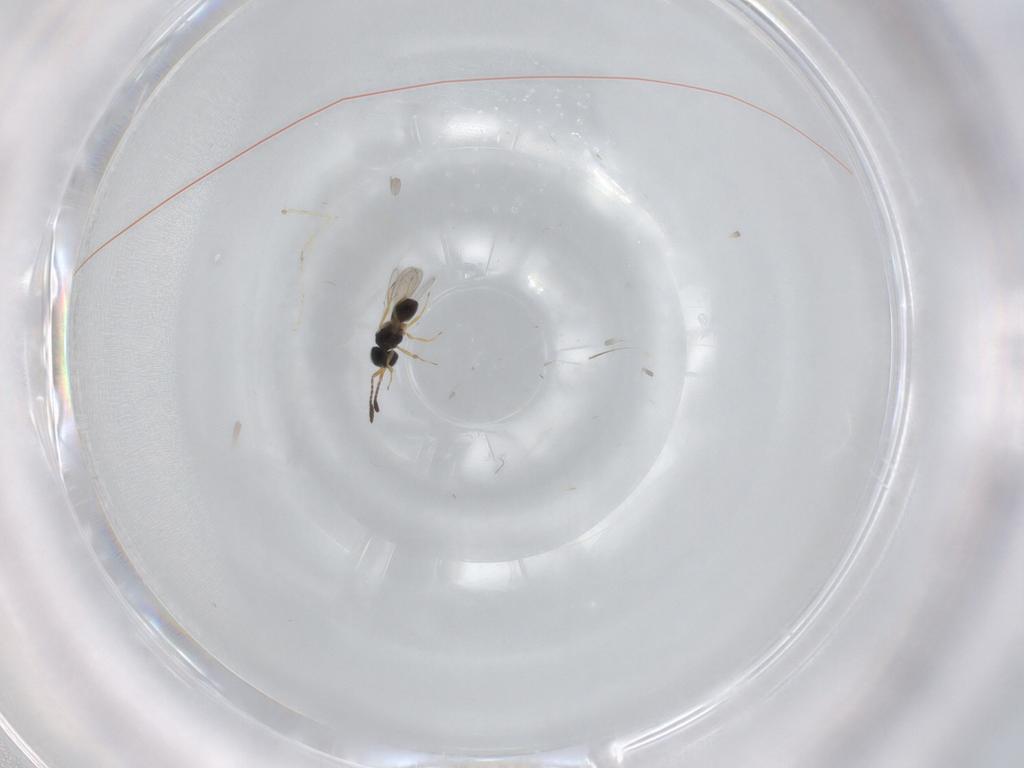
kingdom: Animalia
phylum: Arthropoda
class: Insecta
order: Hymenoptera
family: Scelionidae
